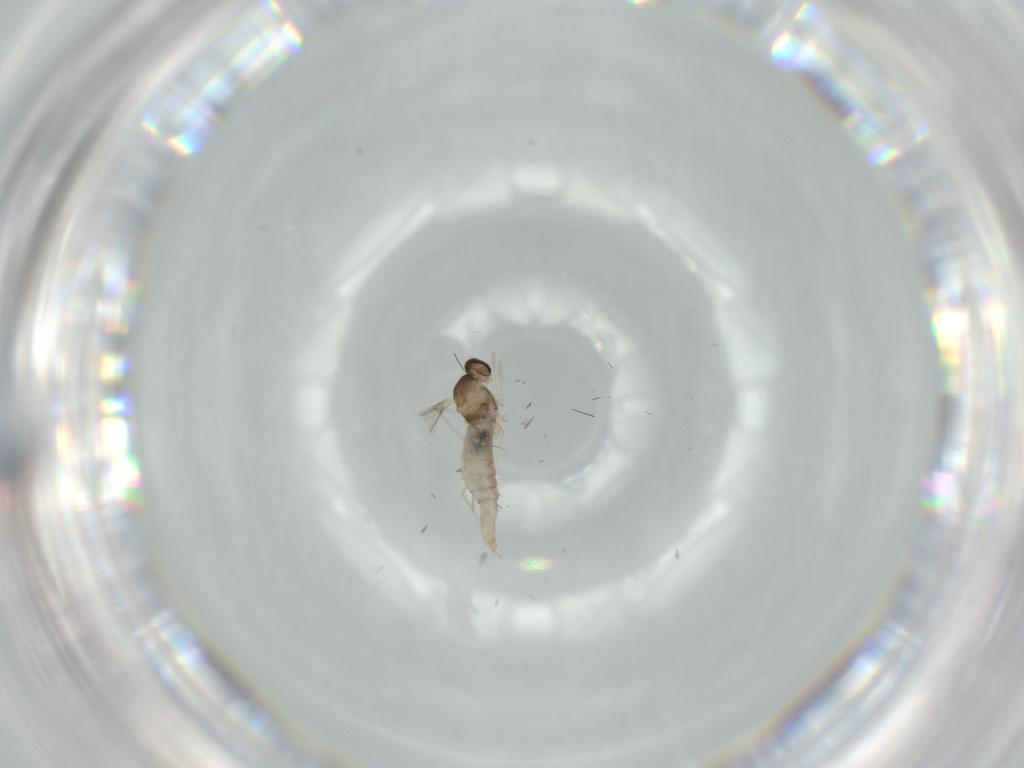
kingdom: Animalia
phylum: Arthropoda
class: Insecta
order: Diptera
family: Cecidomyiidae
